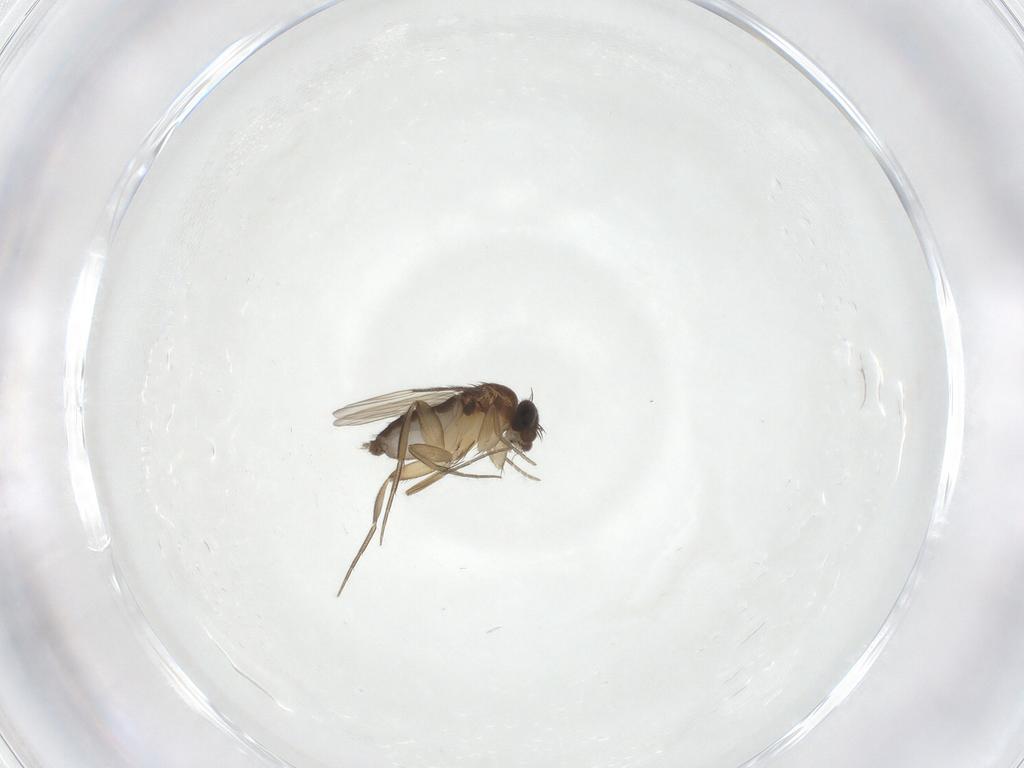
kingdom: Animalia
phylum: Arthropoda
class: Insecta
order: Diptera
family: Phoridae
